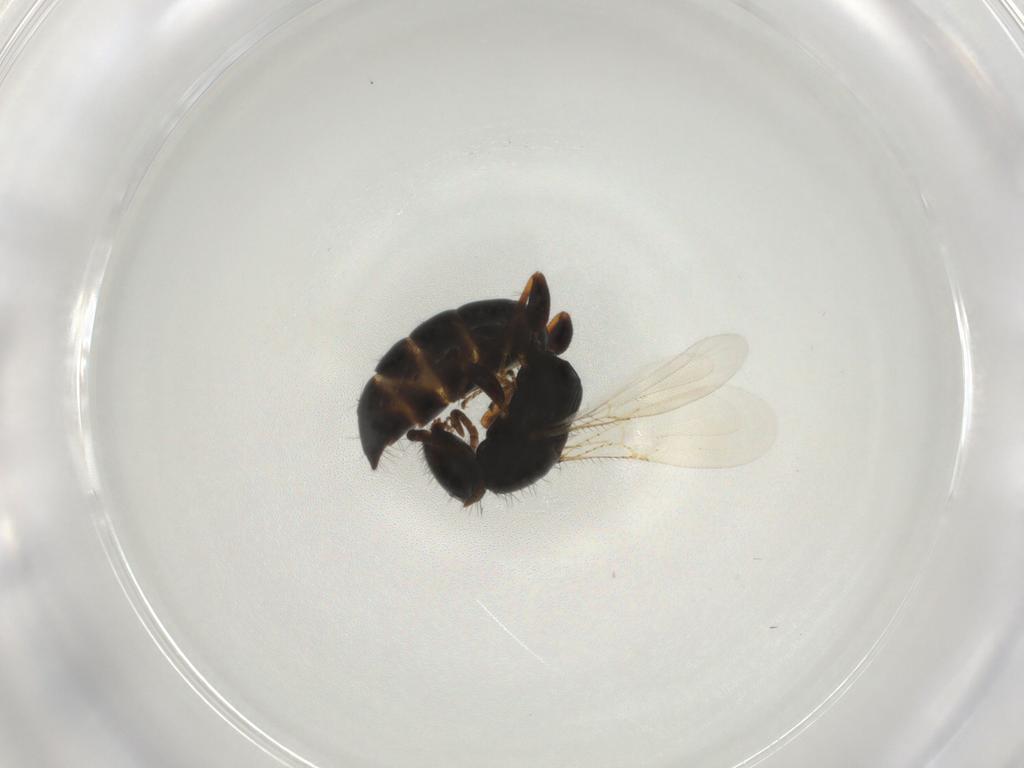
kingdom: Animalia
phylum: Arthropoda
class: Insecta
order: Hymenoptera
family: Bethylidae
